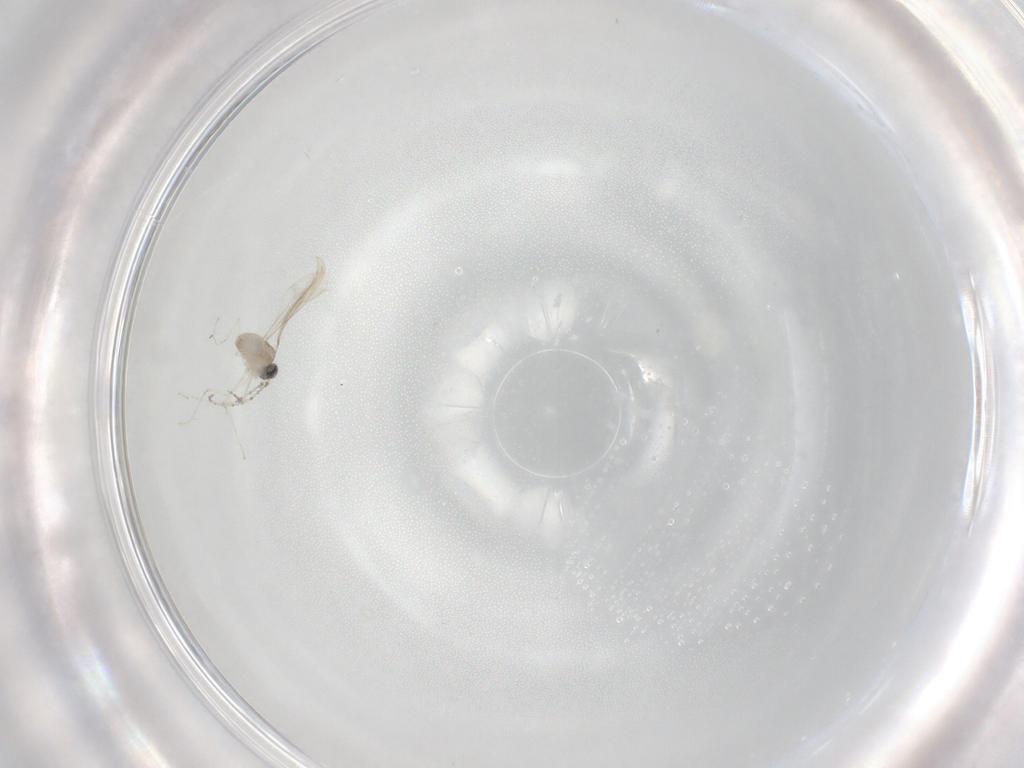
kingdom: Animalia
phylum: Arthropoda
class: Insecta
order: Diptera
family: Cecidomyiidae
